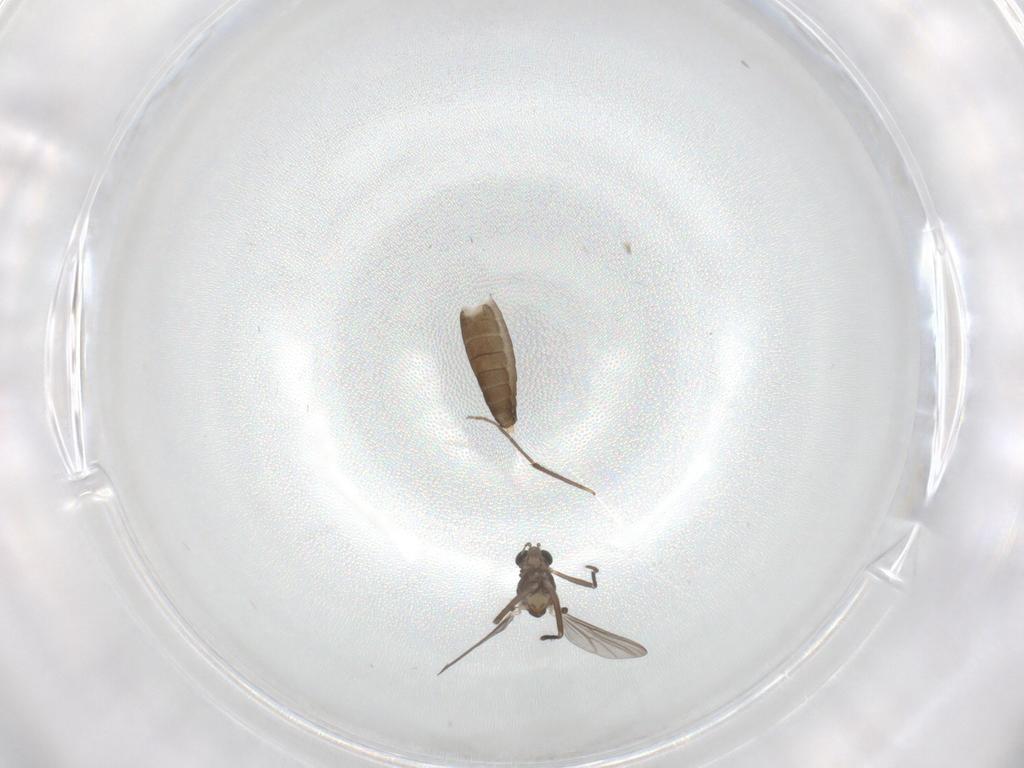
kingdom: Animalia
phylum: Arthropoda
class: Insecta
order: Diptera
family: Chironomidae
